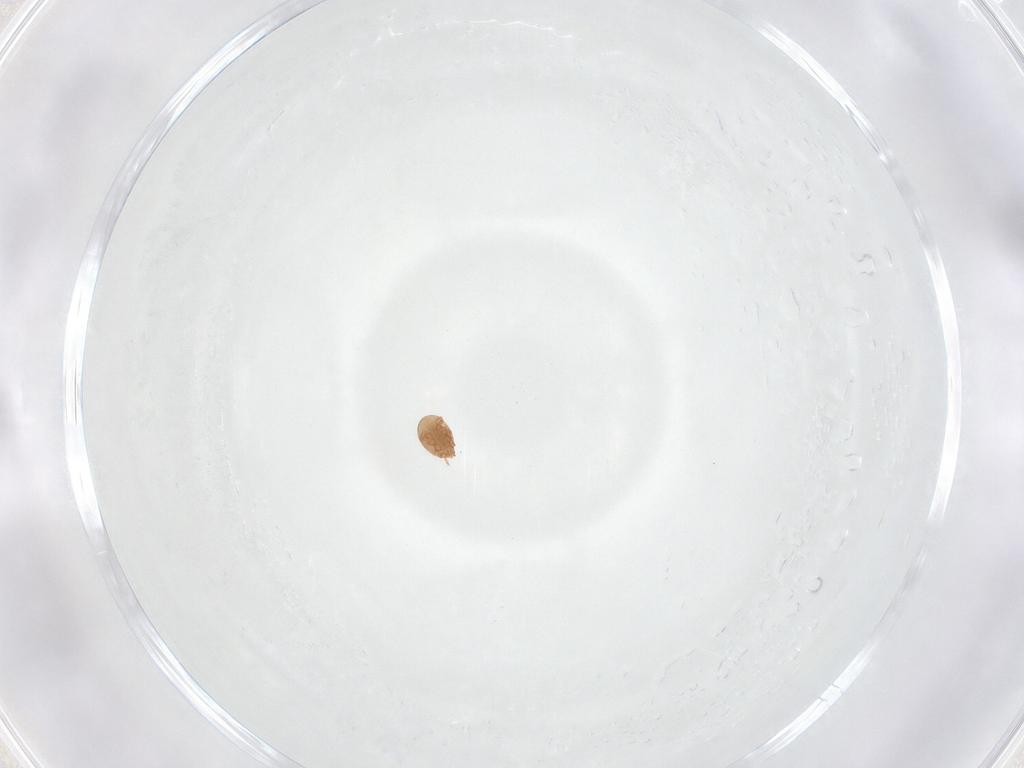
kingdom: Animalia
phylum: Arthropoda
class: Arachnida
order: Mesostigmata
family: Trematuridae
